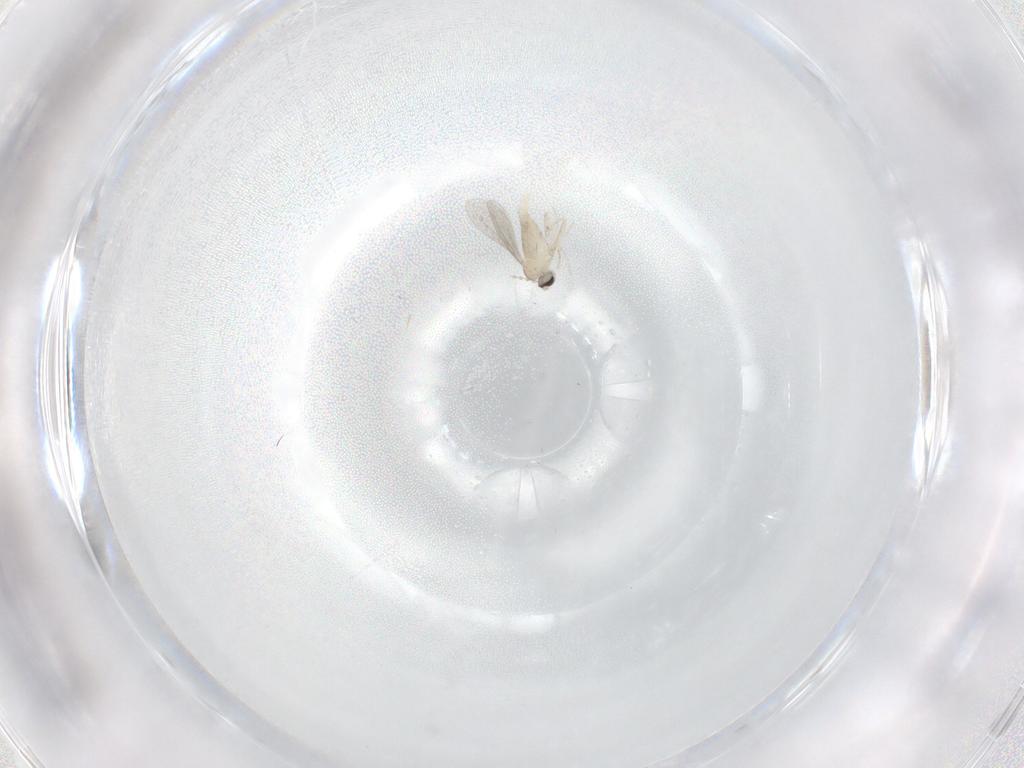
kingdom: Animalia
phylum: Arthropoda
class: Insecta
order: Diptera
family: Cecidomyiidae
